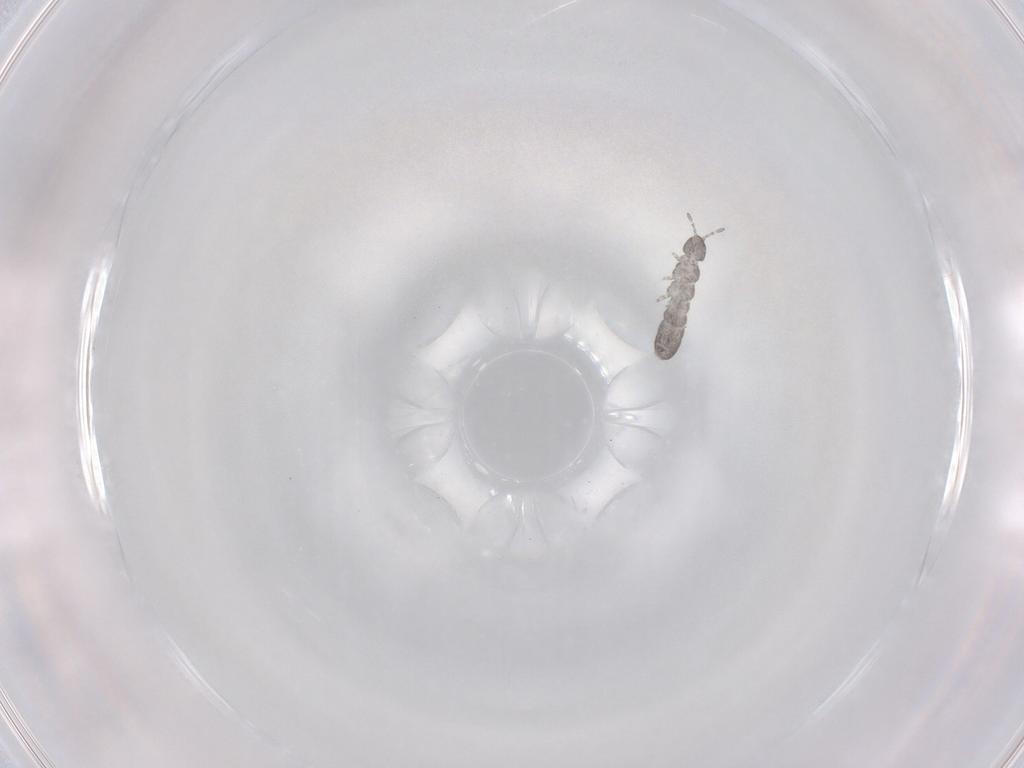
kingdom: Animalia
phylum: Arthropoda
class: Collembola
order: Entomobryomorpha
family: Isotomidae
